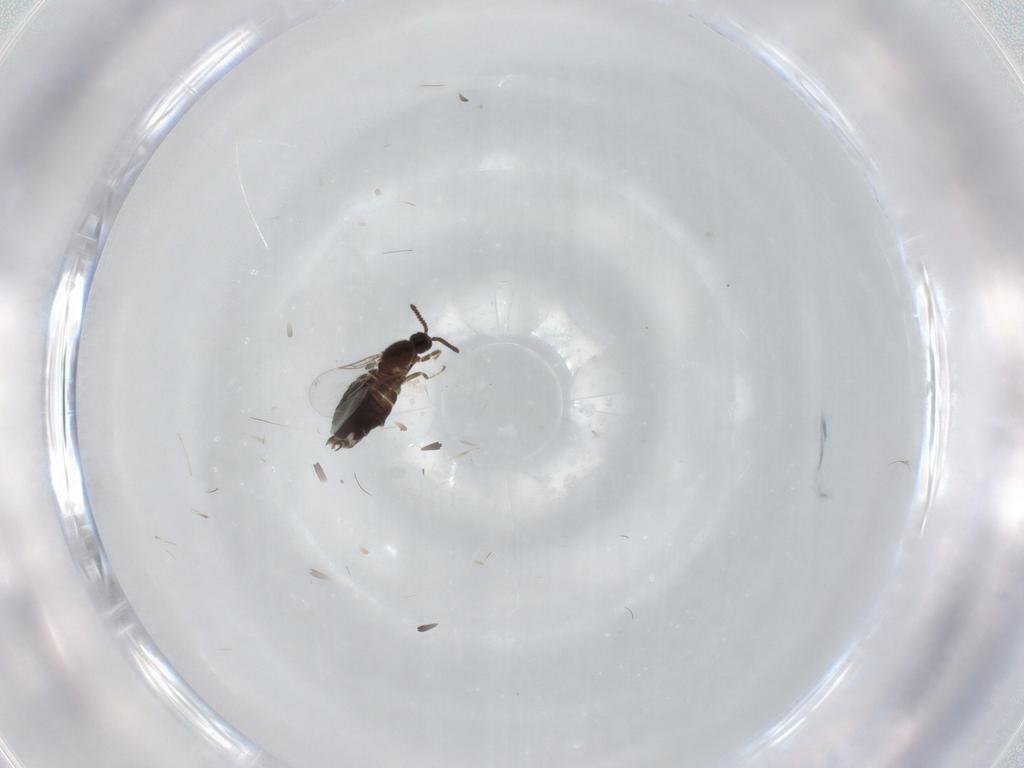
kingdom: Animalia
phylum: Arthropoda
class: Insecta
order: Diptera
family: Scatopsidae
